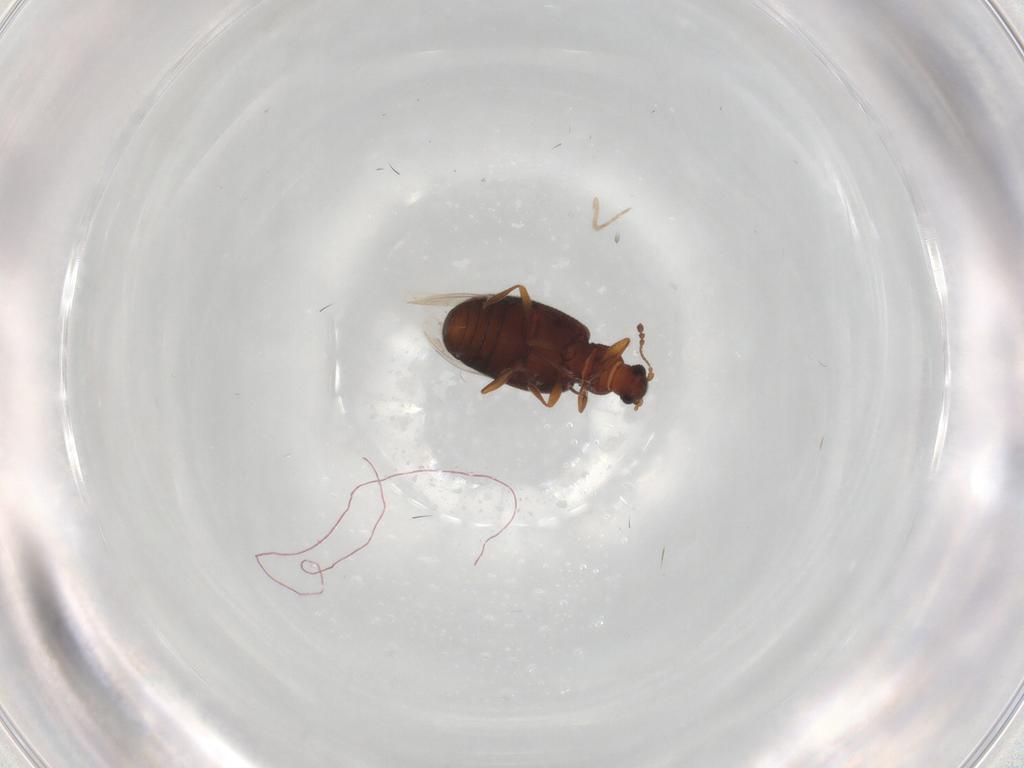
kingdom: Animalia
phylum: Arthropoda
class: Insecta
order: Coleoptera
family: Latridiidae
